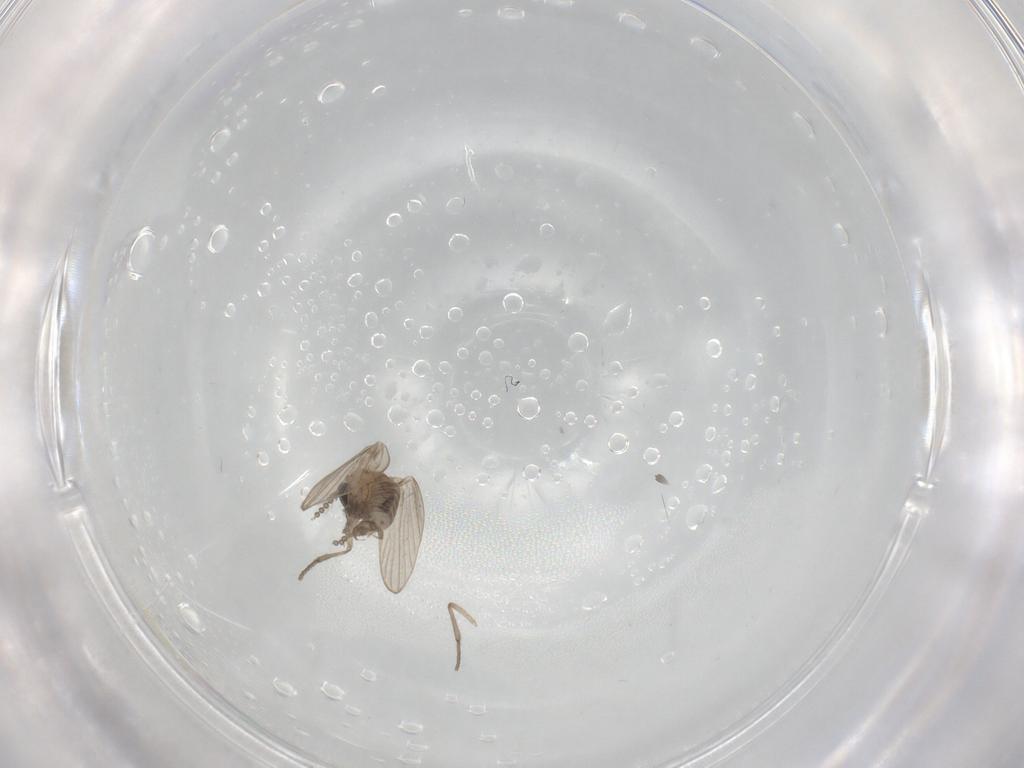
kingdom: Animalia
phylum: Arthropoda
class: Insecta
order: Diptera
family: Psychodidae
